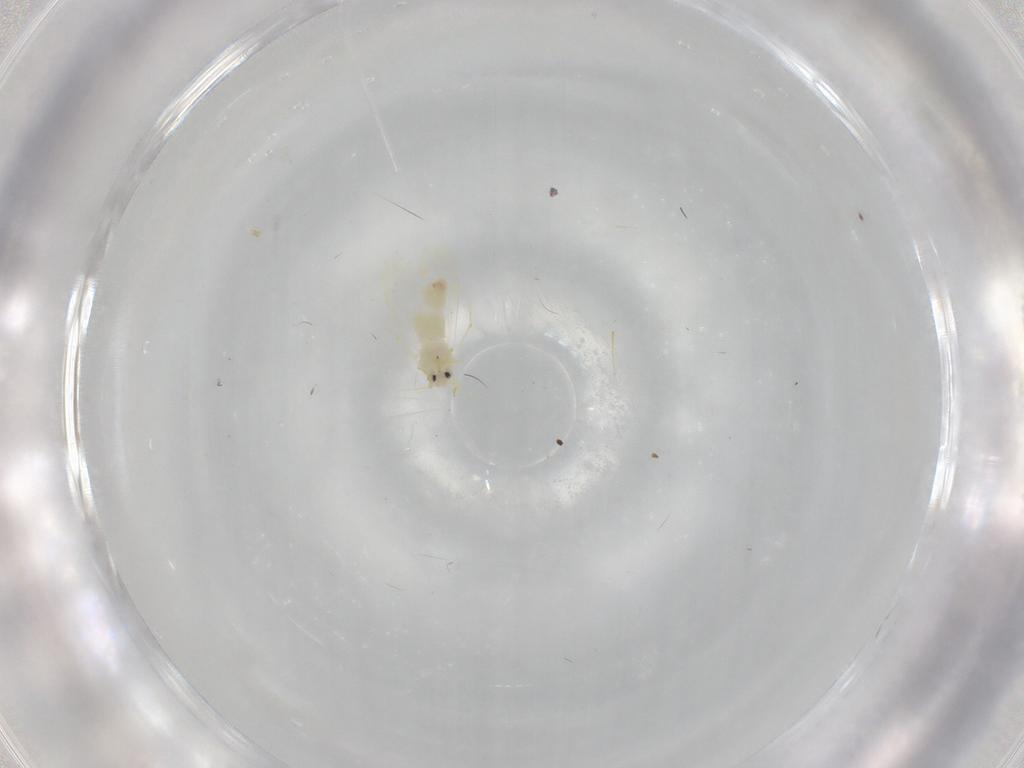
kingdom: Animalia
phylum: Arthropoda
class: Insecta
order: Hemiptera
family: Aleyrodidae
